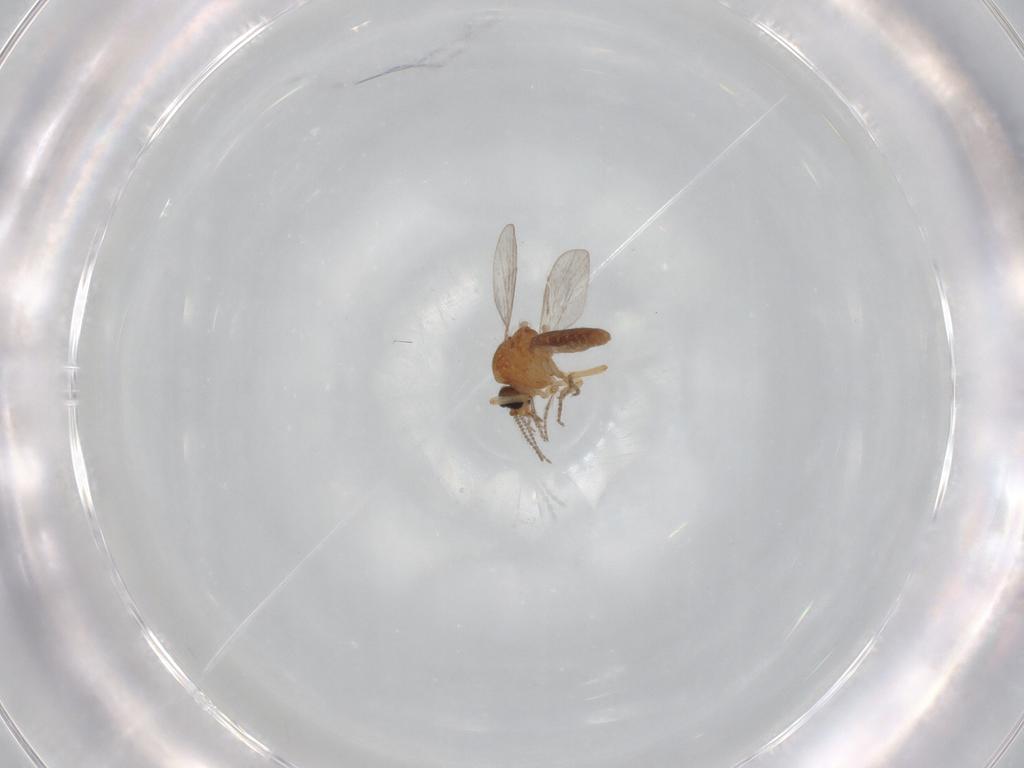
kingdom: Animalia
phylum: Arthropoda
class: Insecta
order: Diptera
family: Ceratopogonidae
